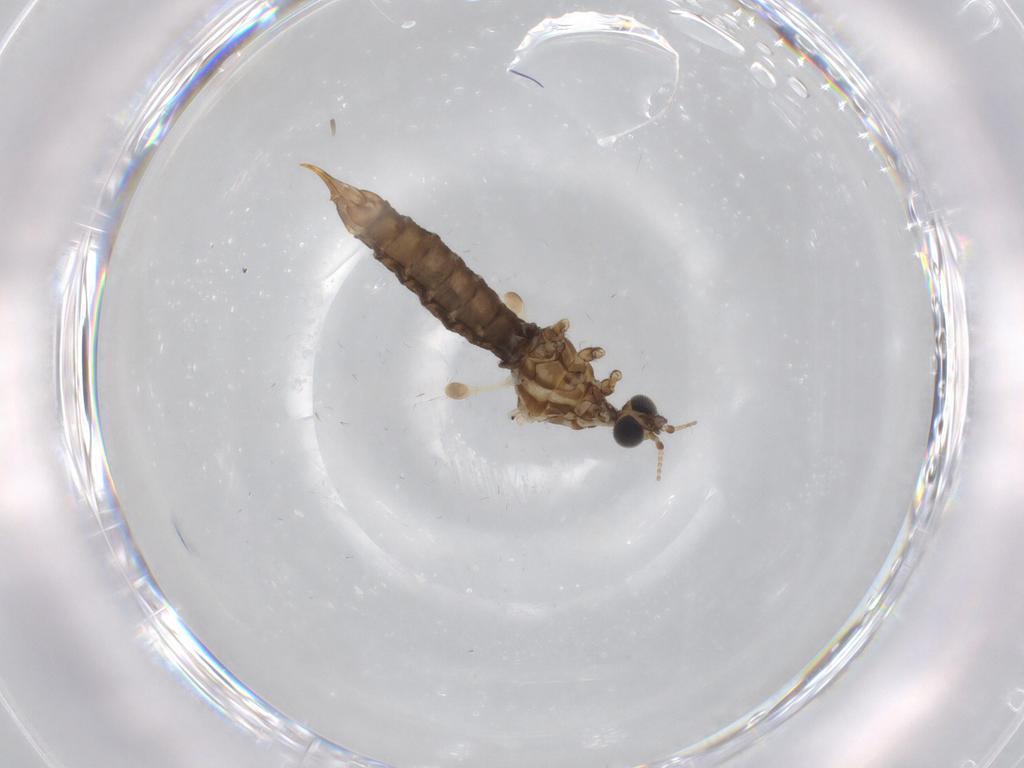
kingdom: Animalia
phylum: Arthropoda
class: Insecta
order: Diptera
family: Limoniidae
